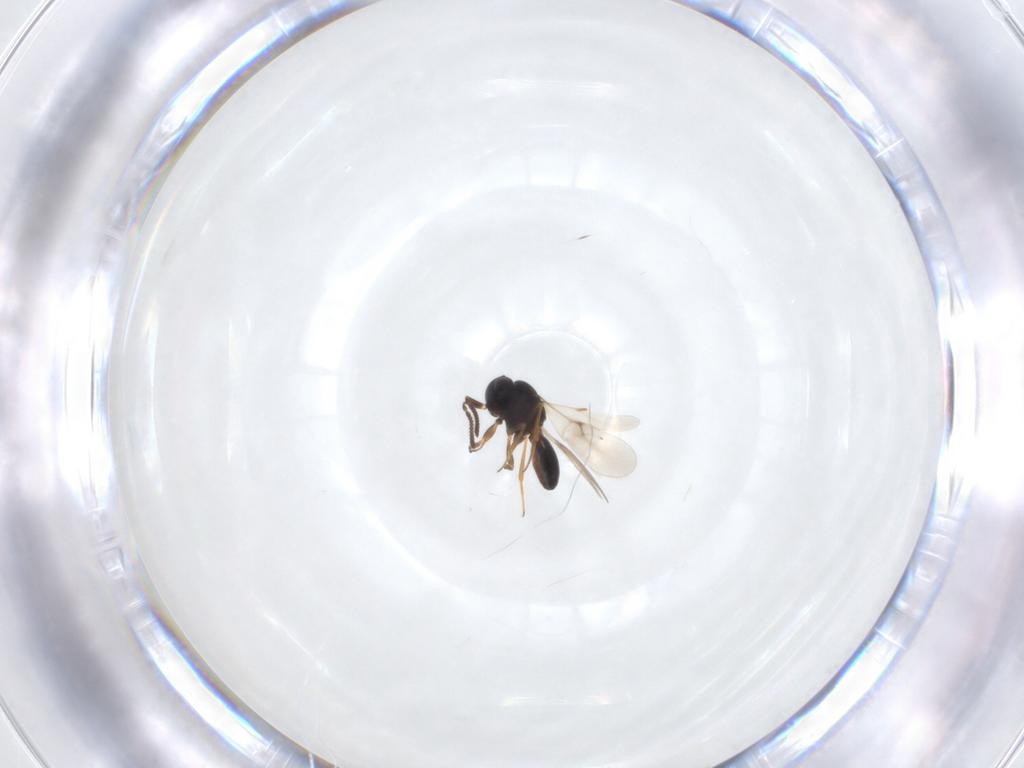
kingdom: Animalia
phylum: Arthropoda
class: Insecta
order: Hymenoptera
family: Scelionidae
